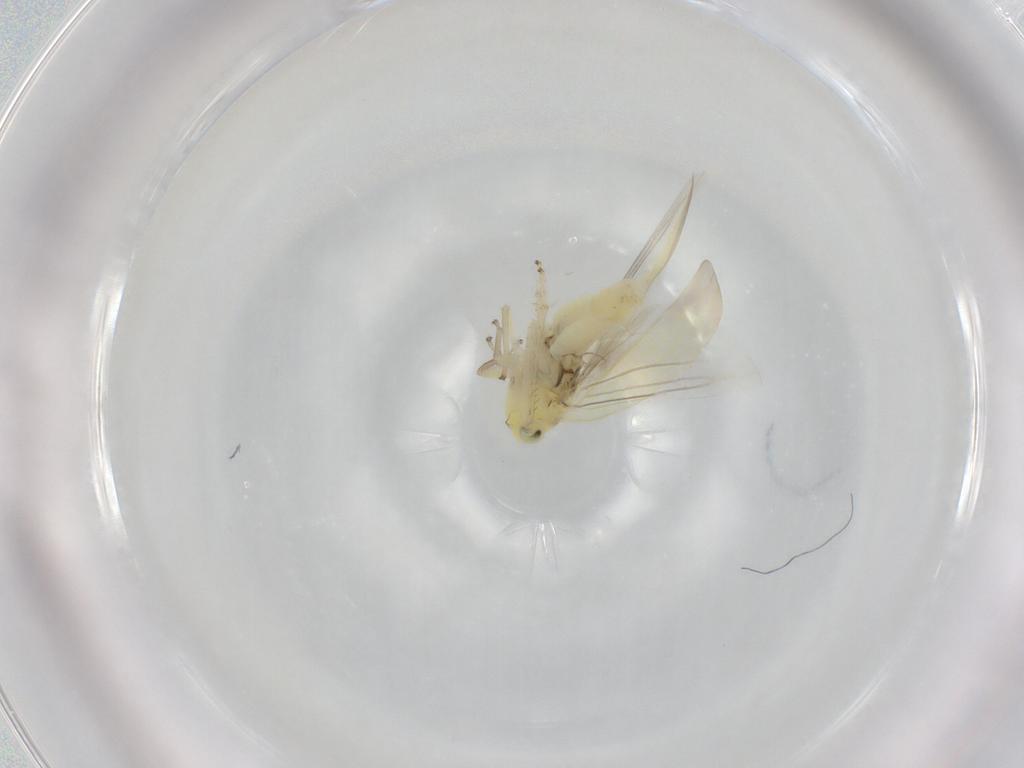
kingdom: Animalia
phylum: Arthropoda
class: Insecta
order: Hemiptera
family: Cicadellidae
